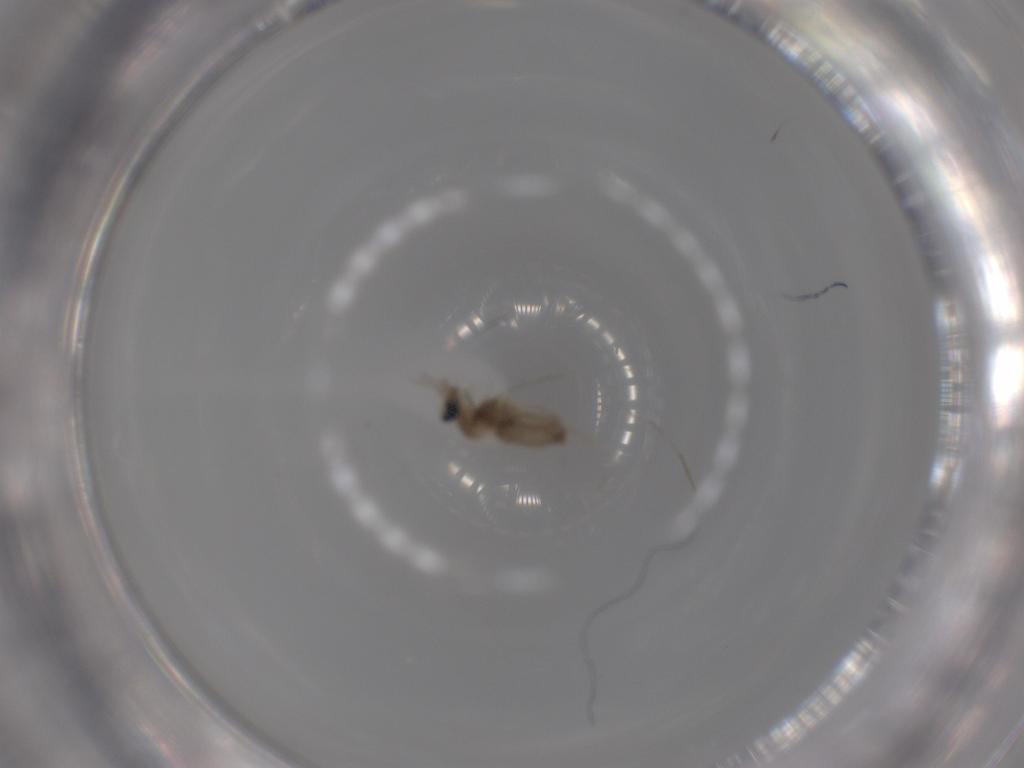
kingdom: Animalia
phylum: Arthropoda
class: Insecta
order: Diptera
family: Cecidomyiidae
